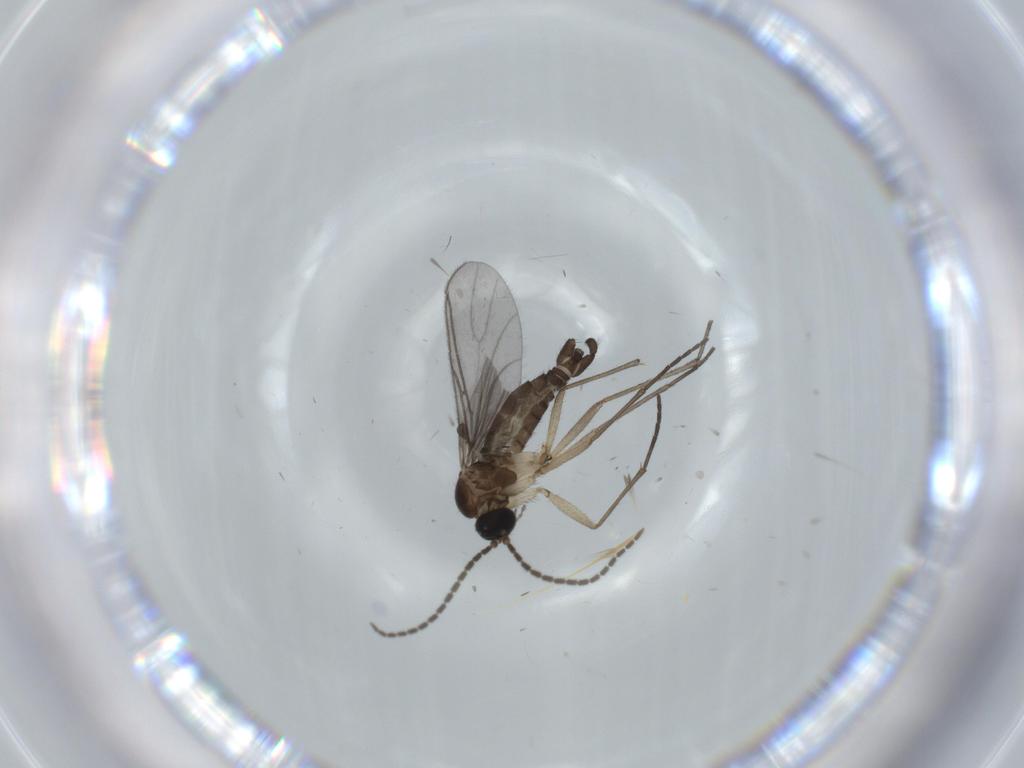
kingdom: Animalia
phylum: Arthropoda
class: Insecta
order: Diptera
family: Sciaridae
